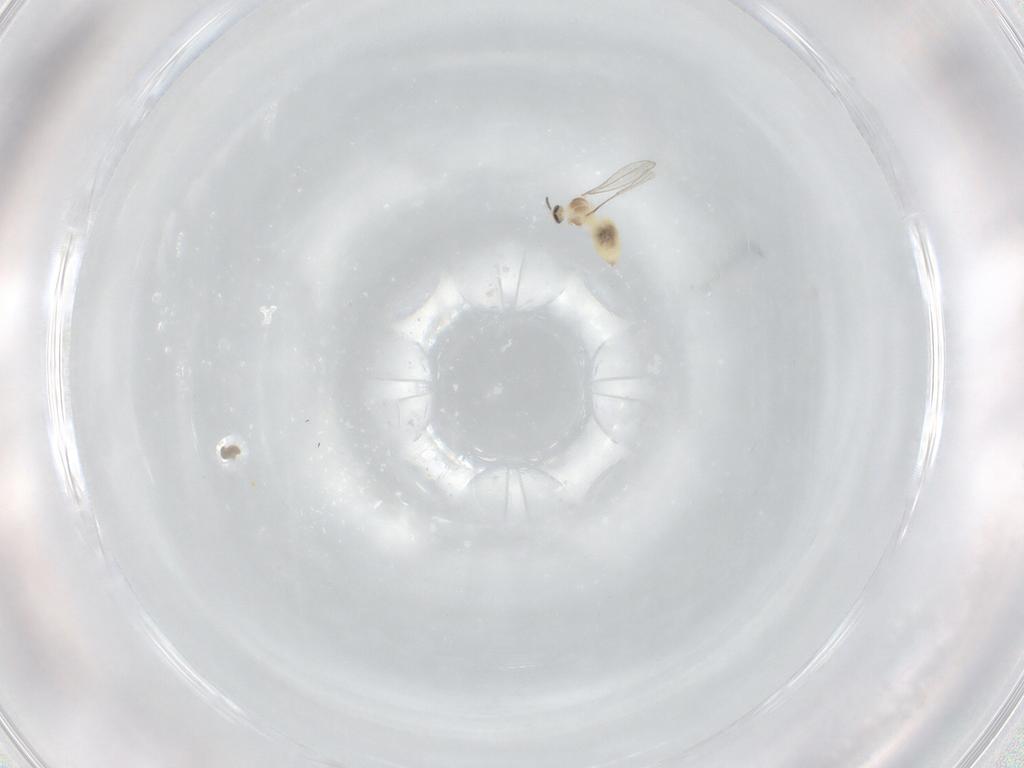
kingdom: Animalia
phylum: Arthropoda
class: Insecta
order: Diptera
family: Cecidomyiidae
